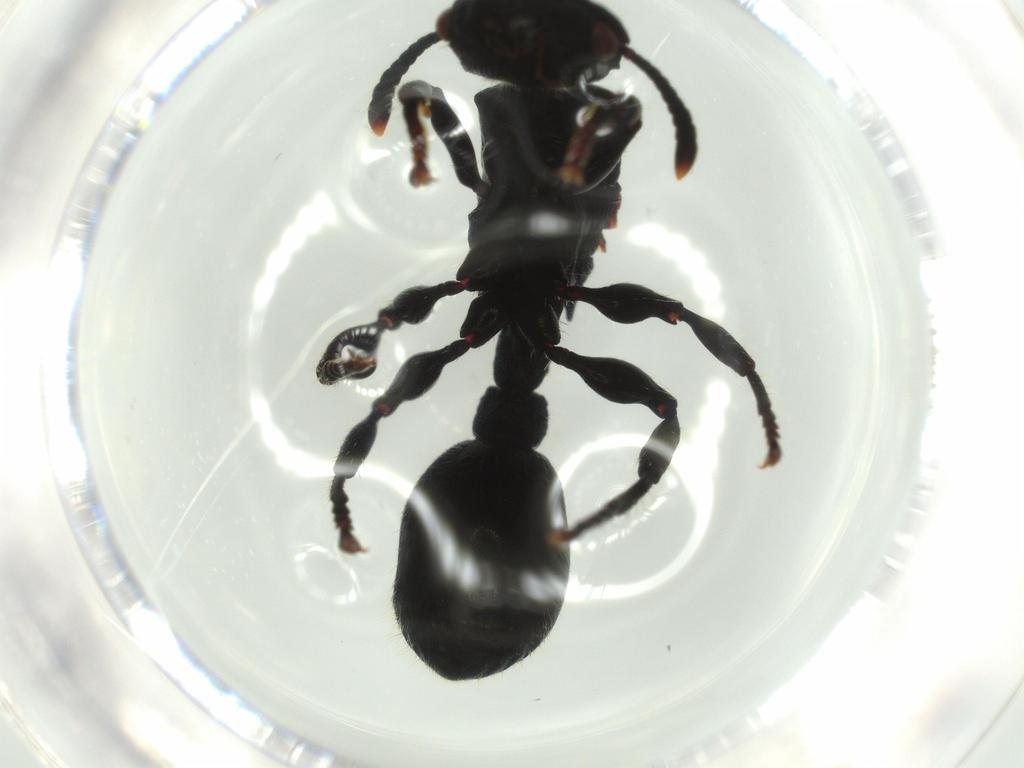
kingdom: Animalia
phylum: Arthropoda
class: Insecta
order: Hymenoptera
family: Formicidae
